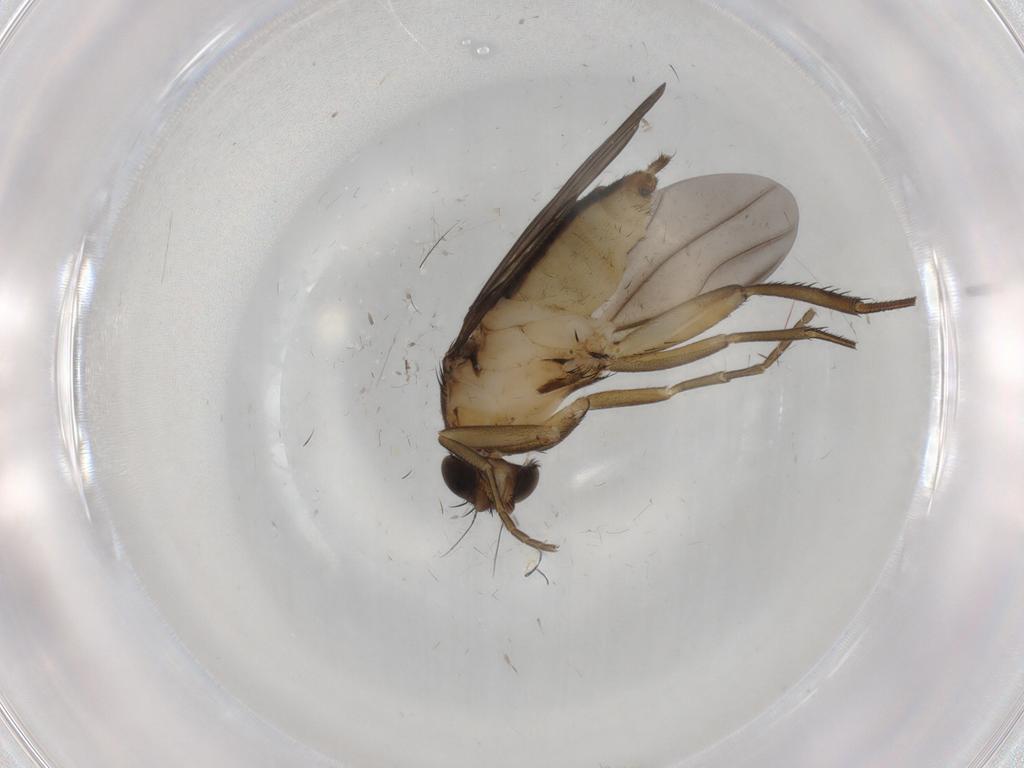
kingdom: Animalia
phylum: Arthropoda
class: Insecta
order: Diptera
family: Phoridae
